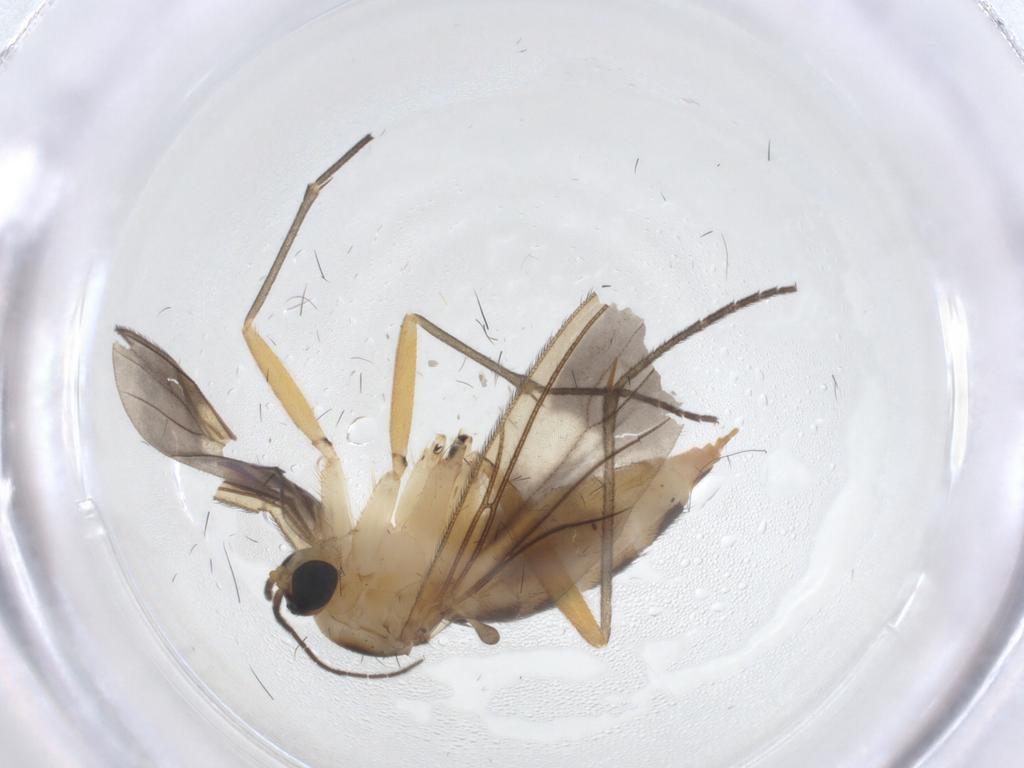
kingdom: Animalia
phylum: Arthropoda
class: Insecta
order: Diptera
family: Sciaridae
